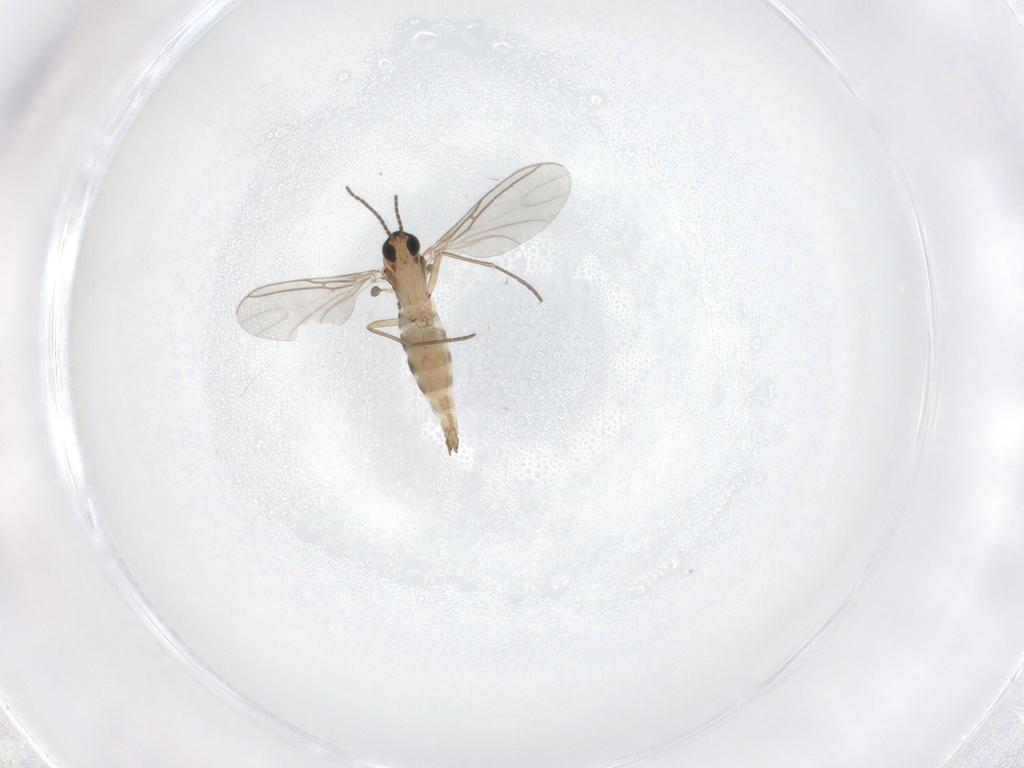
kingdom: Animalia
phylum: Arthropoda
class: Insecta
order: Diptera
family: Sciaridae
